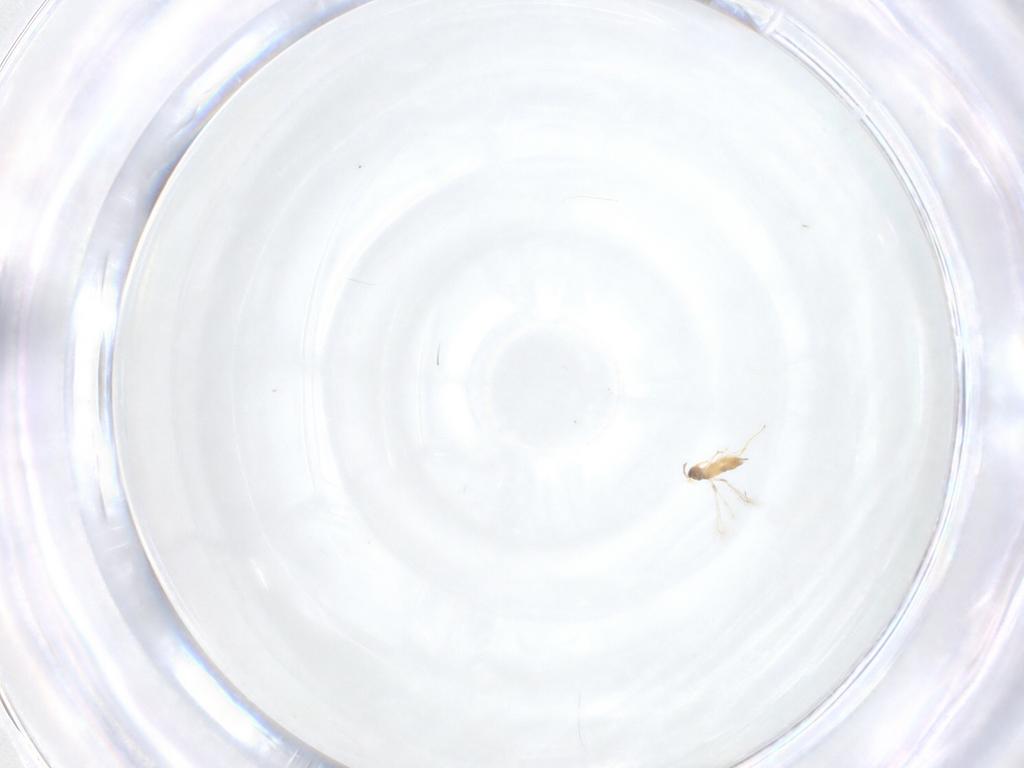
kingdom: Animalia
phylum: Arthropoda
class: Insecta
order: Hymenoptera
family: Mymaridae
